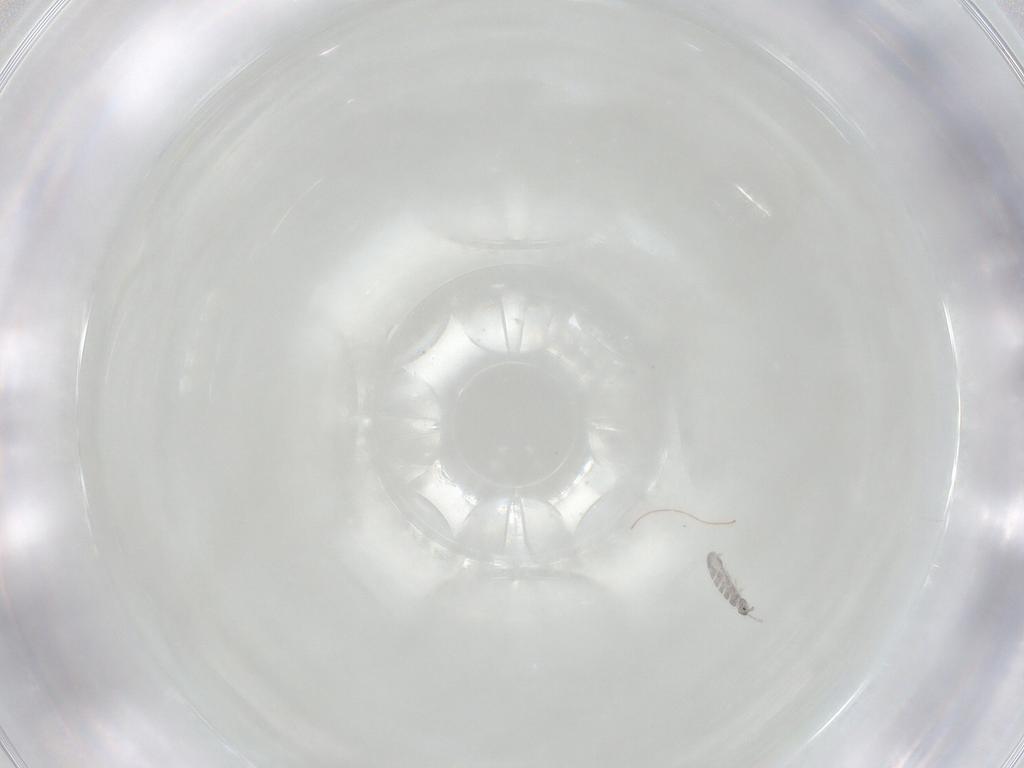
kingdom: Animalia
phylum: Arthropoda
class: Collembola
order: Entomobryomorpha
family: Isotomidae
